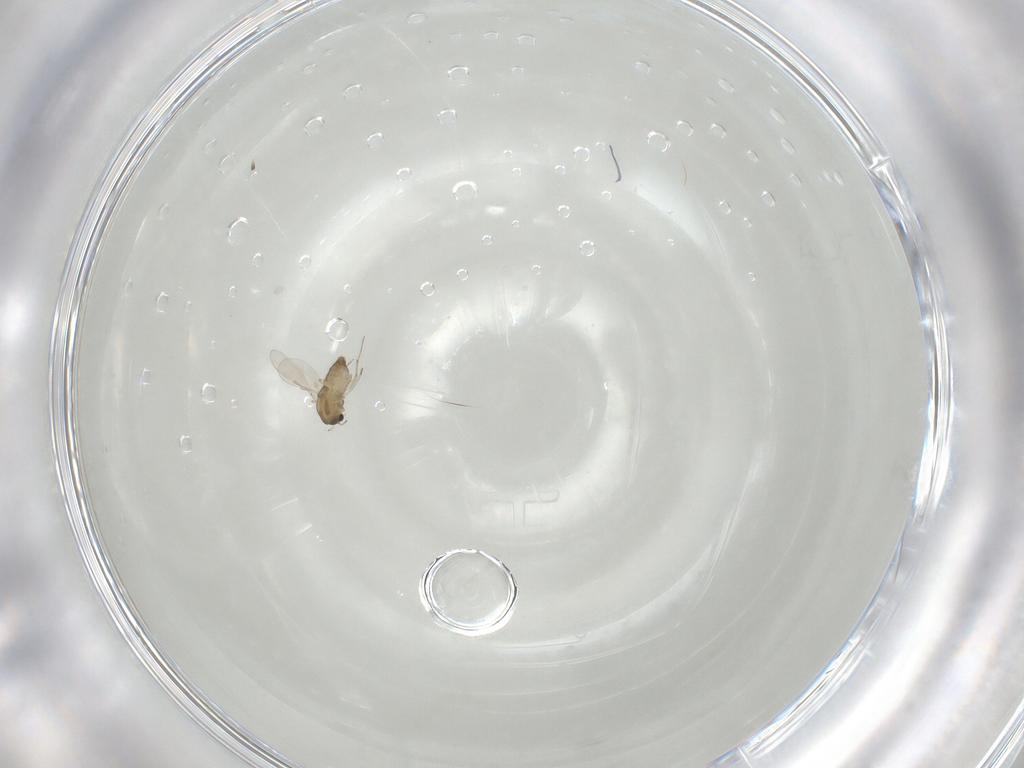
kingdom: Animalia
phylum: Arthropoda
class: Insecta
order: Diptera
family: Chironomidae
